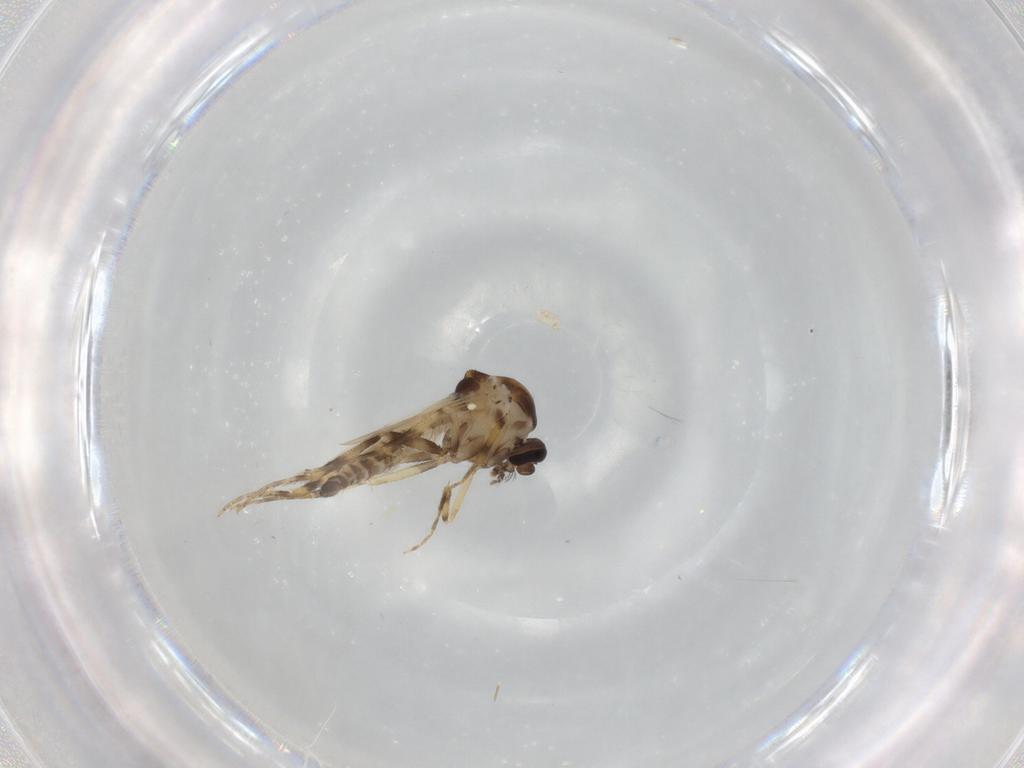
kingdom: Animalia
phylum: Arthropoda
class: Insecta
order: Diptera
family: Ceratopogonidae
